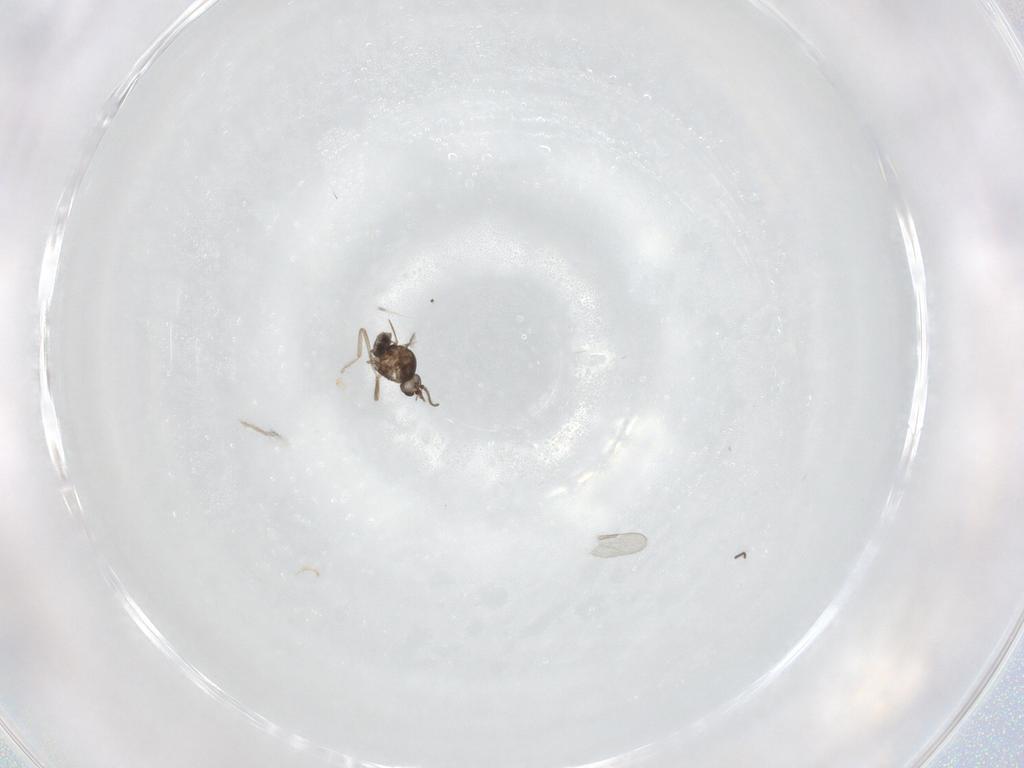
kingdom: Animalia
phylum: Arthropoda
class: Insecta
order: Diptera
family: Ceratopogonidae
